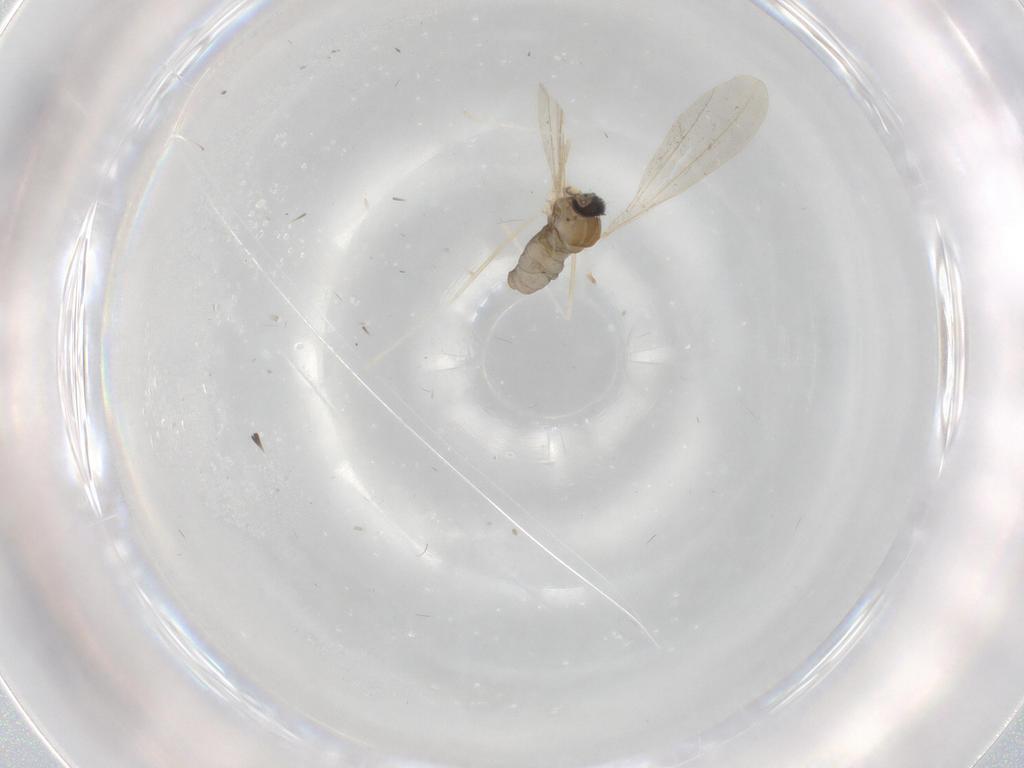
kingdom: Animalia
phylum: Arthropoda
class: Insecta
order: Diptera
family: Cecidomyiidae
